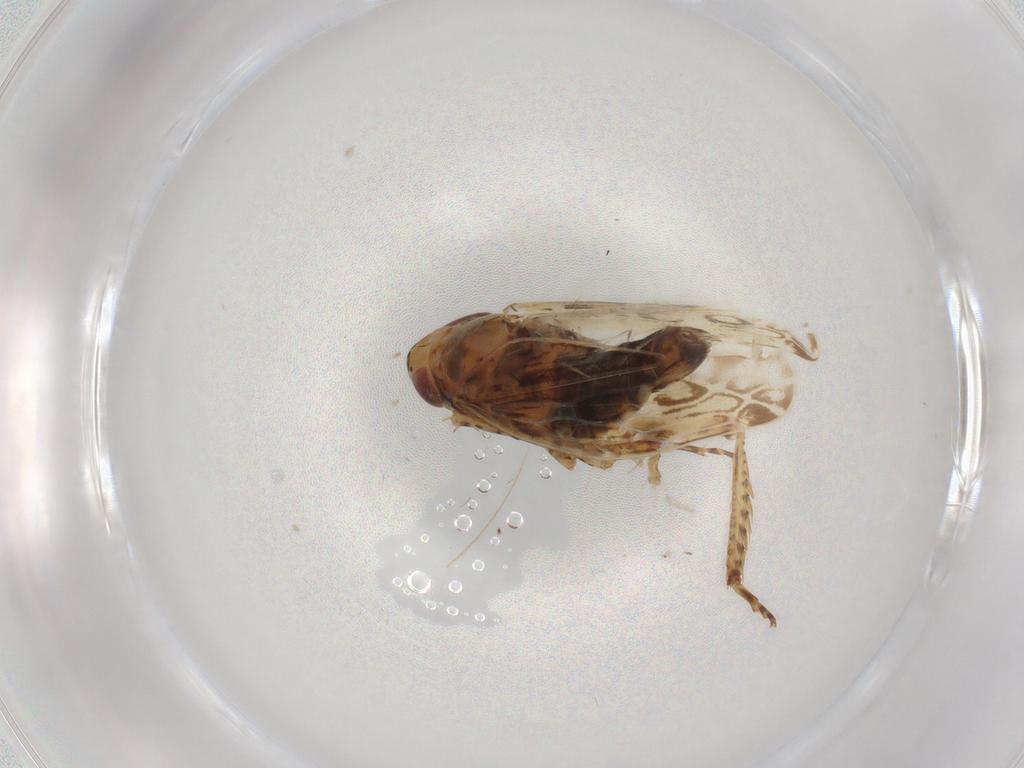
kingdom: Animalia
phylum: Arthropoda
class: Insecta
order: Hemiptera
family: Cicadellidae
